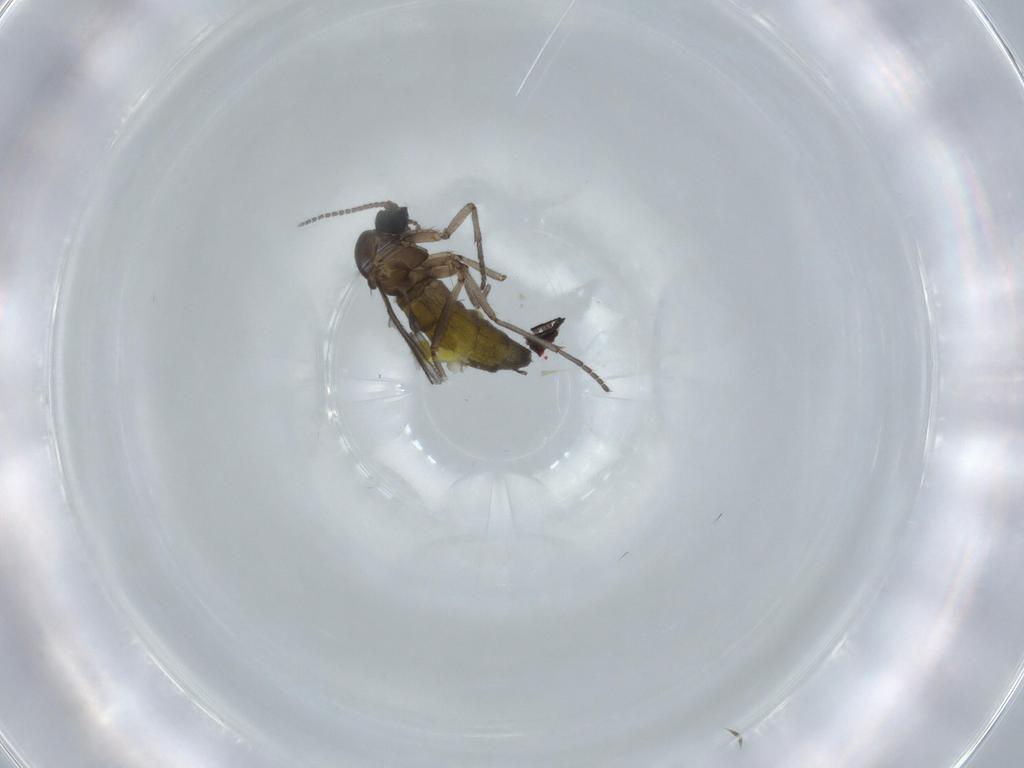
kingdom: Animalia
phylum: Arthropoda
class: Insecta
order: Diptera
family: Sciaridae
